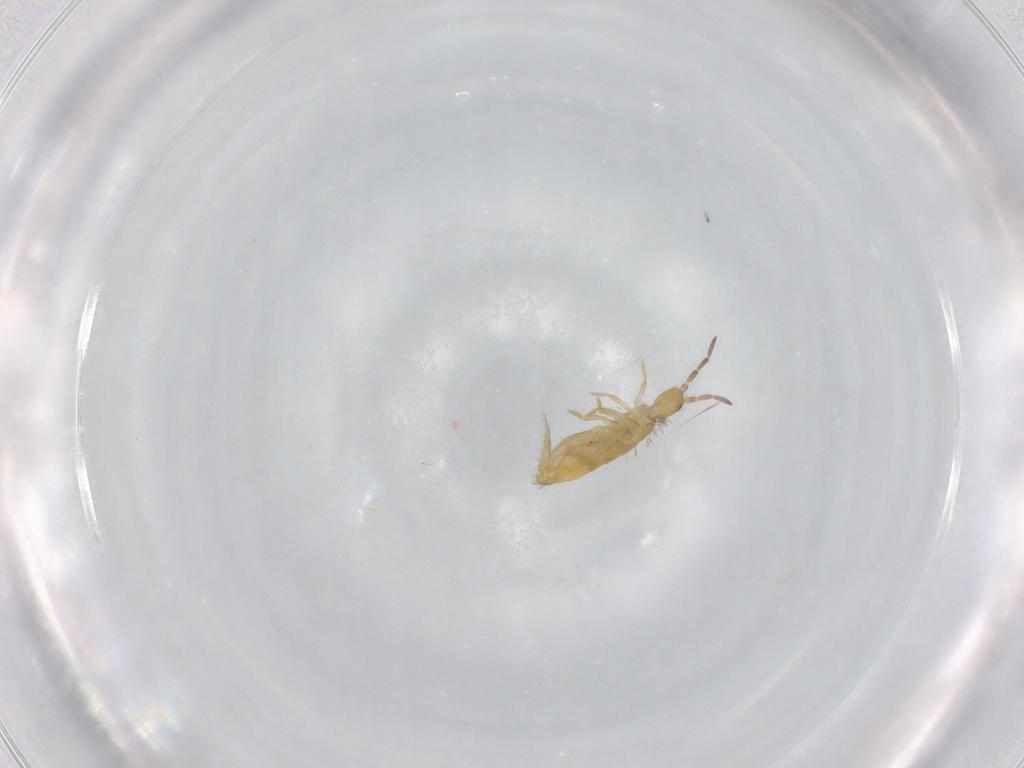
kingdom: Animalia
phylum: Arthropoda
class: Collembola
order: Entomobryomorpha
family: Entomobryidae
